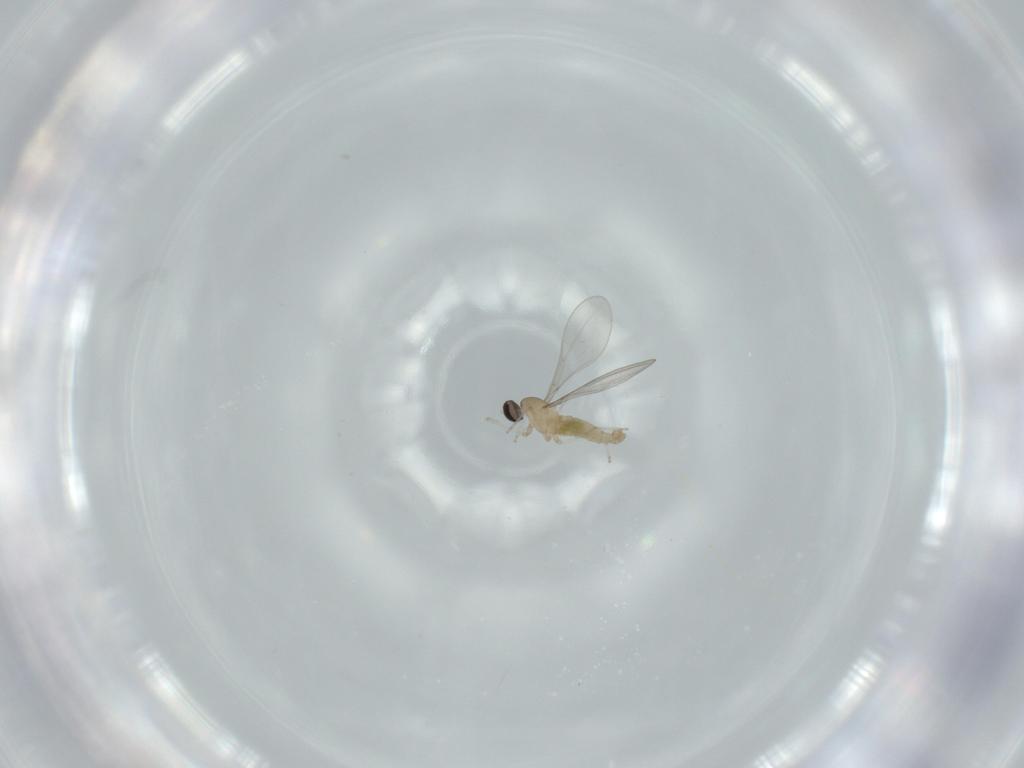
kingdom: Animalia
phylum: Arthropoda
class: Insecta
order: Diptera
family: Cecidomyiidae
